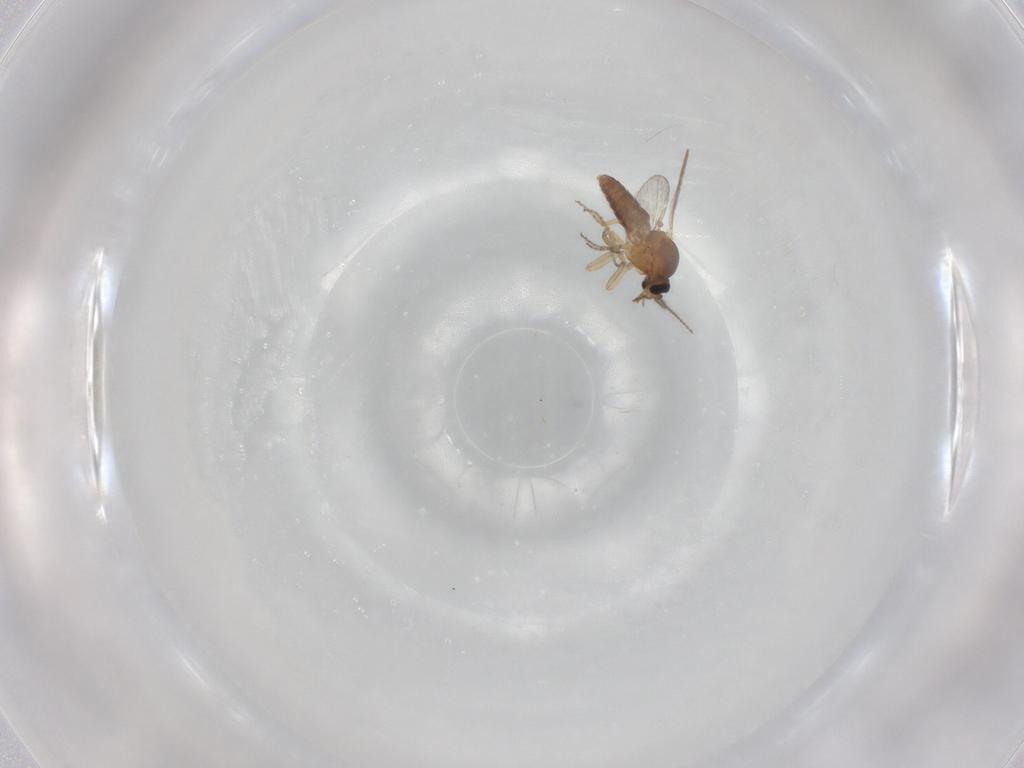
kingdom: Animalia
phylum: Arthropoda
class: Insecta
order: Diptera
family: Ceratopogonidae
